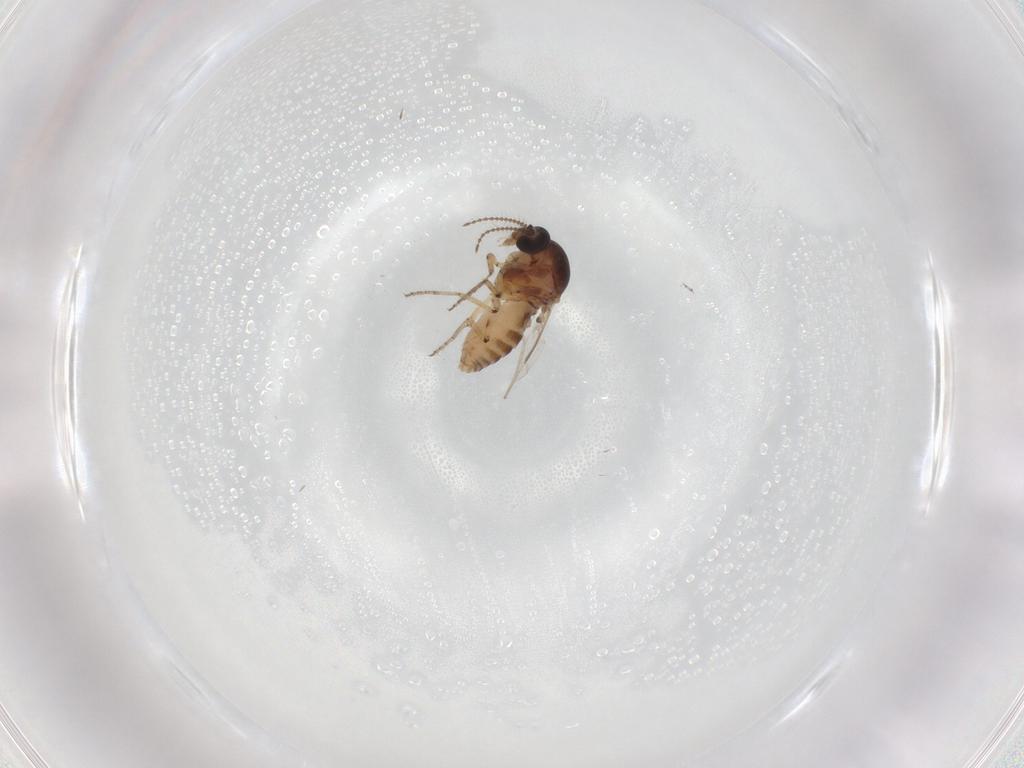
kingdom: Animalia
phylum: Arthropoda
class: Insecta
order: Diptera
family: Ceratopogonidae
